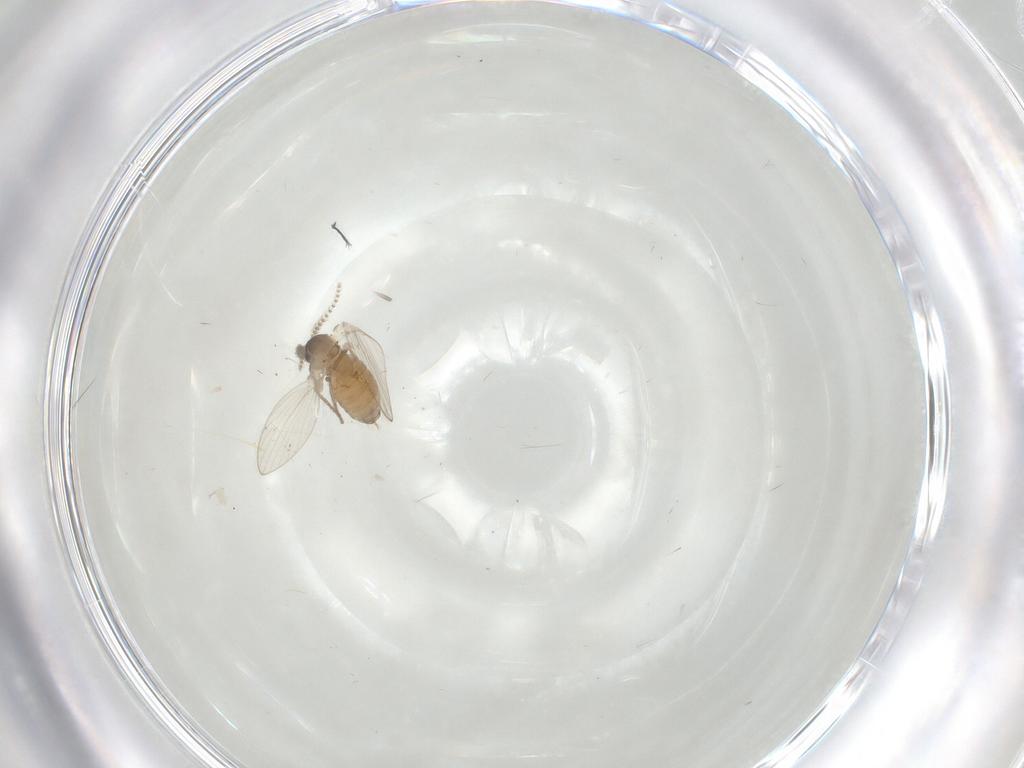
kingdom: Animalia
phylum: Arthropoda
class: Insecta
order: Diptera
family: Psychodidae
